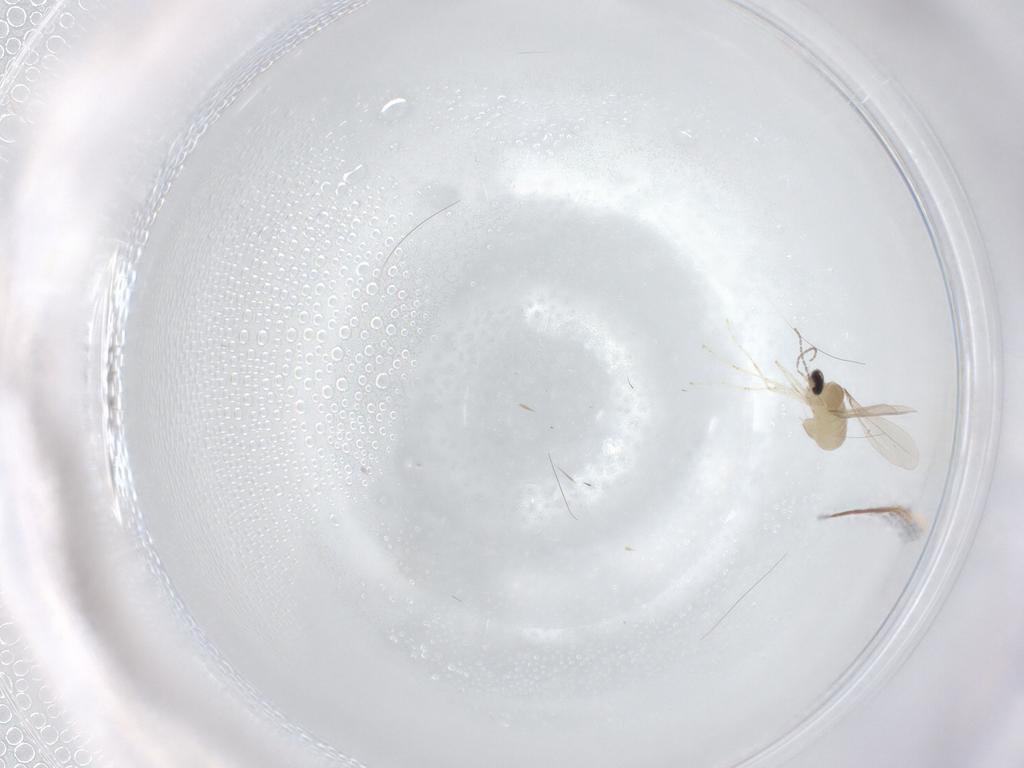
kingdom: Animalia
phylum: Arthropoda
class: Insecta
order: Diptera
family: Cecidomyiidae
